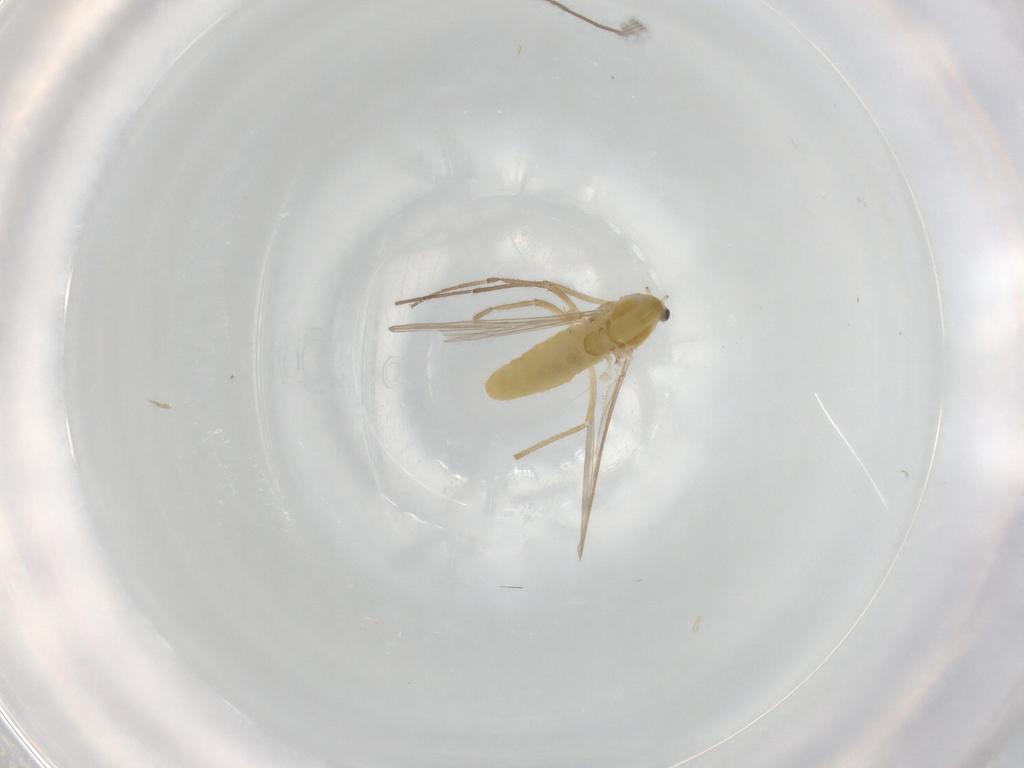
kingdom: Animalia
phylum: Arthropoda
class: Insecta
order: Diptera
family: Chironomidae
